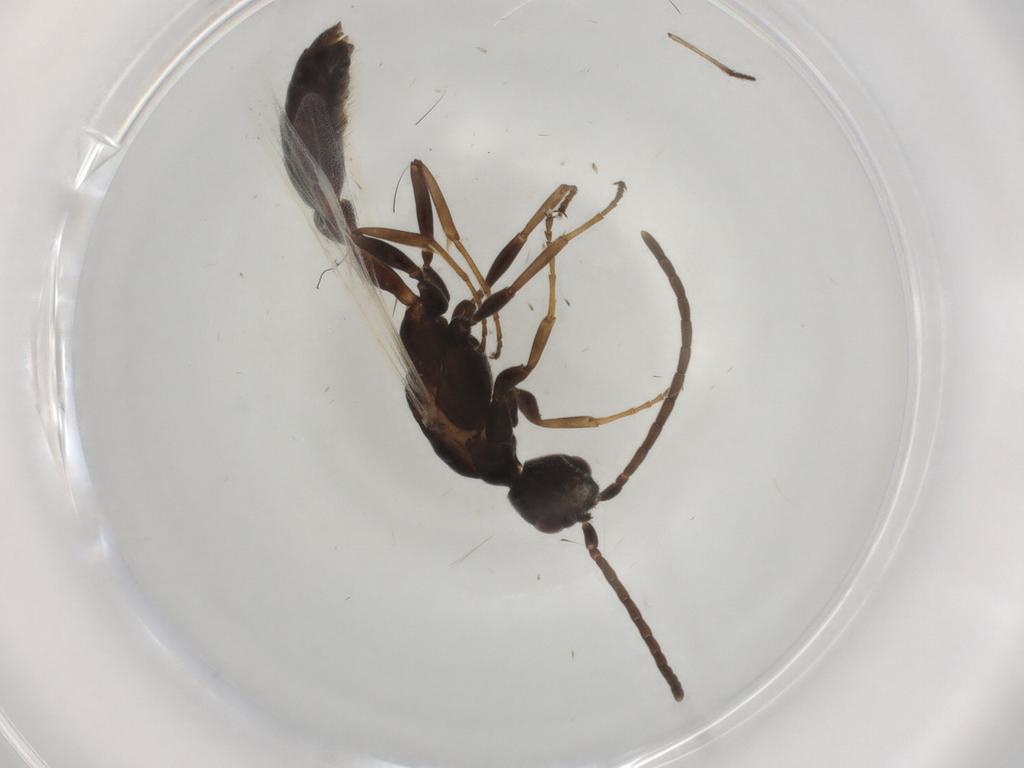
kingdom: Animalia
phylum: Arthropoda
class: Insecta
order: Hymenoptera
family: Formicidae
